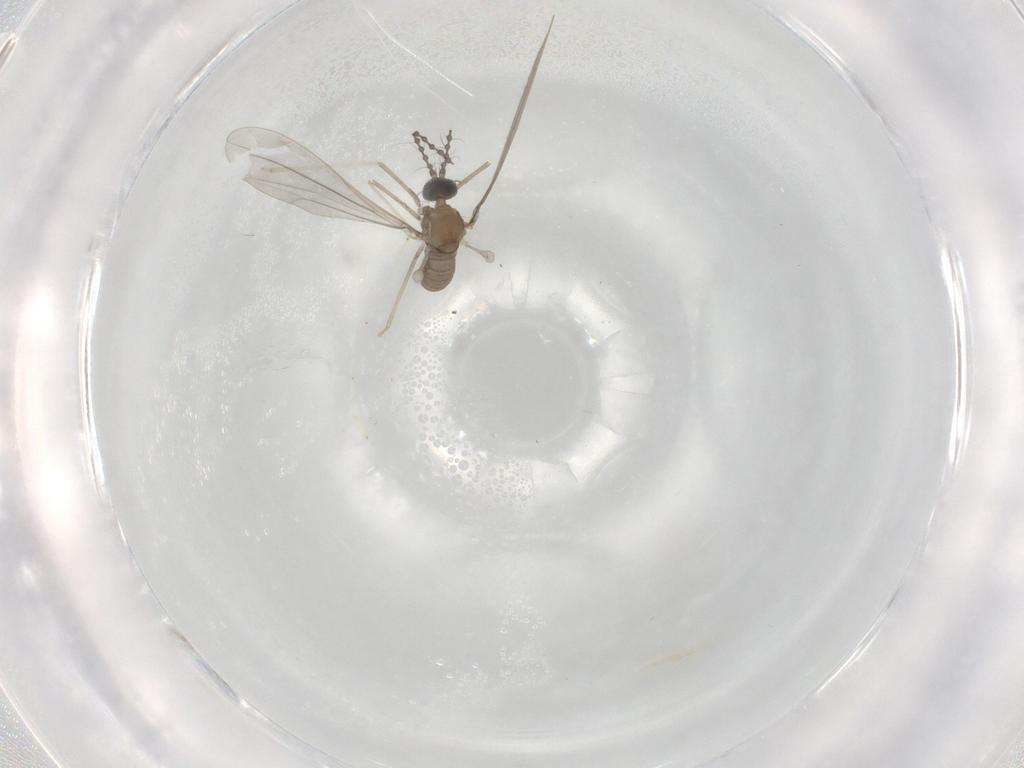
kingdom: Animalia
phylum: Arthropoda
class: Insecta
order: Diptera
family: Cecidomyiidae
